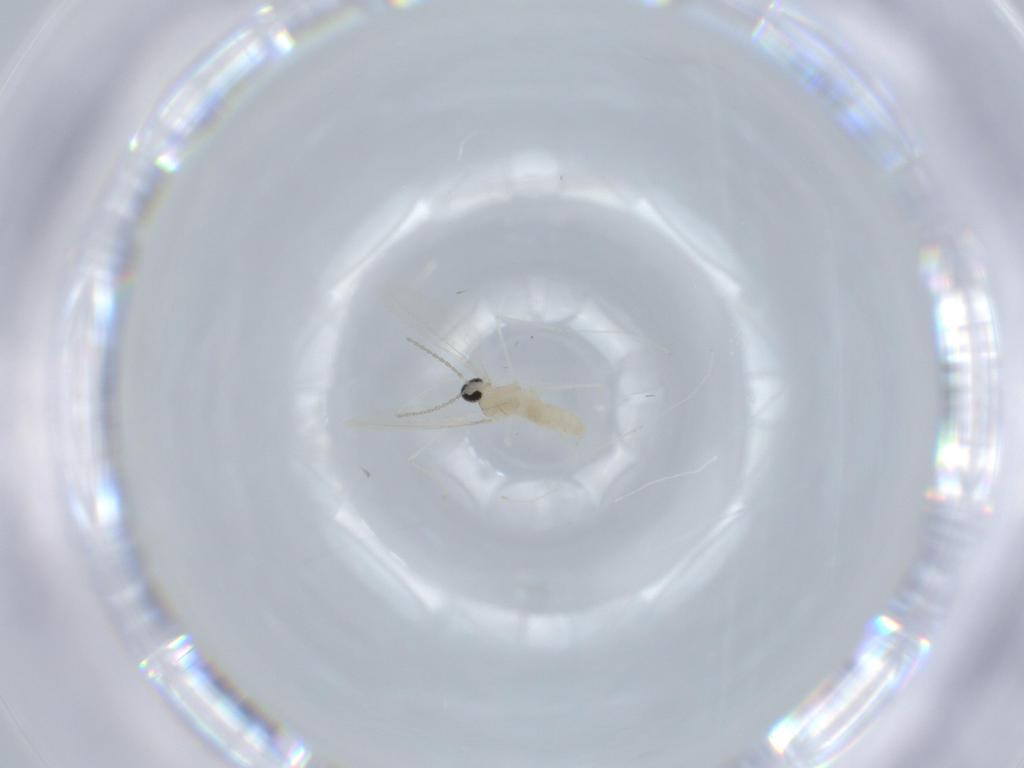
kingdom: Animalia
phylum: Arthropoda
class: Insecta
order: Diptera
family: Cecidomyiidae
